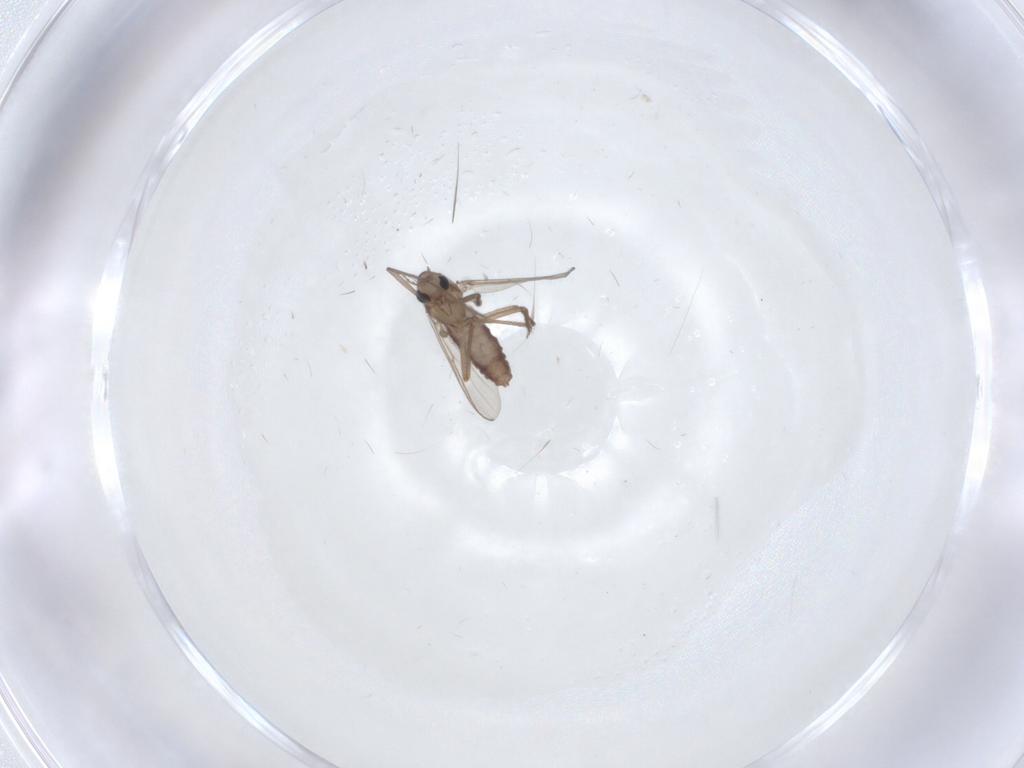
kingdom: Animalia
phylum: Arthropoda
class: Insecta
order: Diptera
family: Chironomidae
